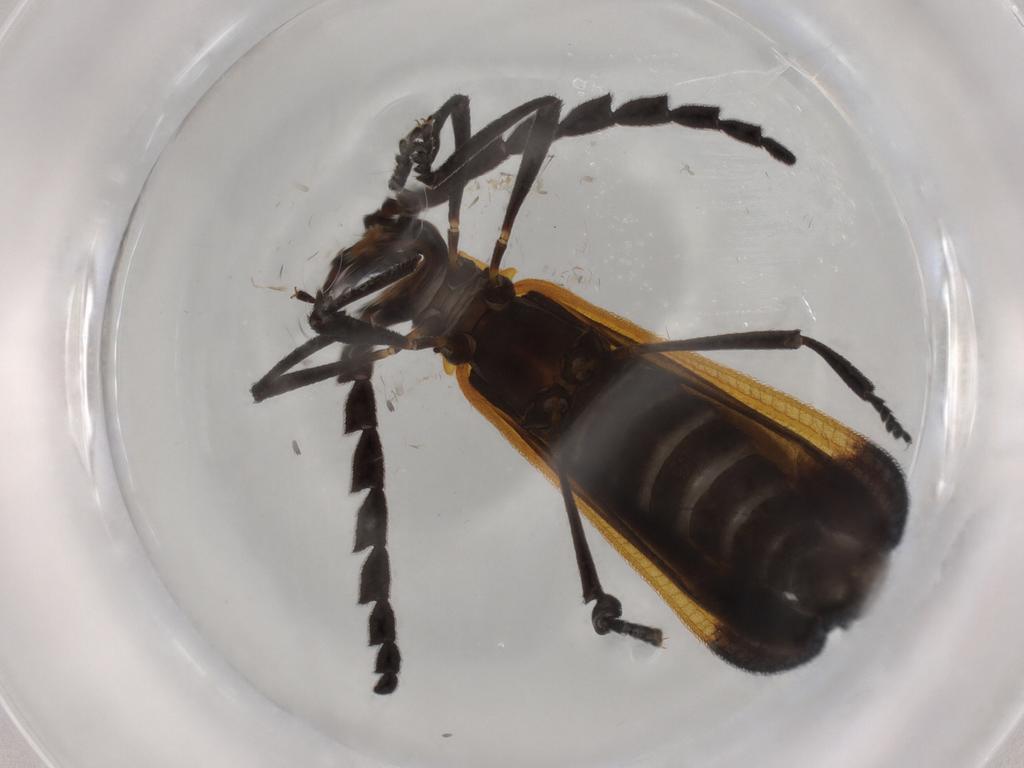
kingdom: Animalia
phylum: Arthropoda
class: Insecta
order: Coleoptera
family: Lycidae
